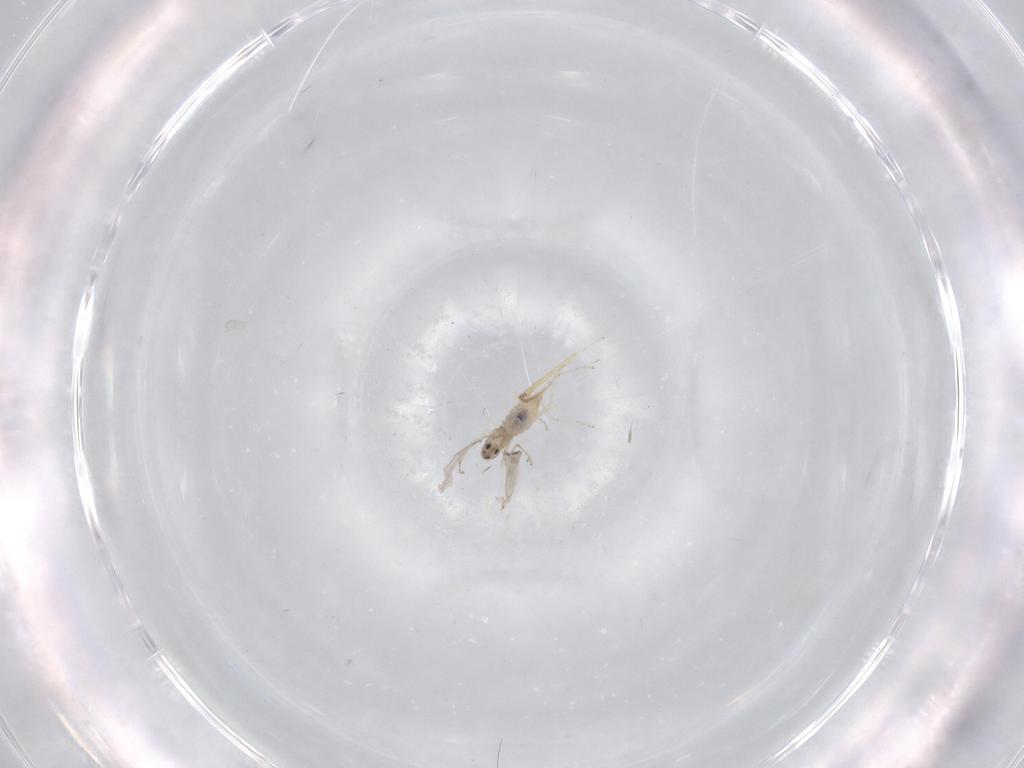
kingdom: Animalia
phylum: Arthropoda
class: Insecta
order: Diptera
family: Cecidomyiidae
